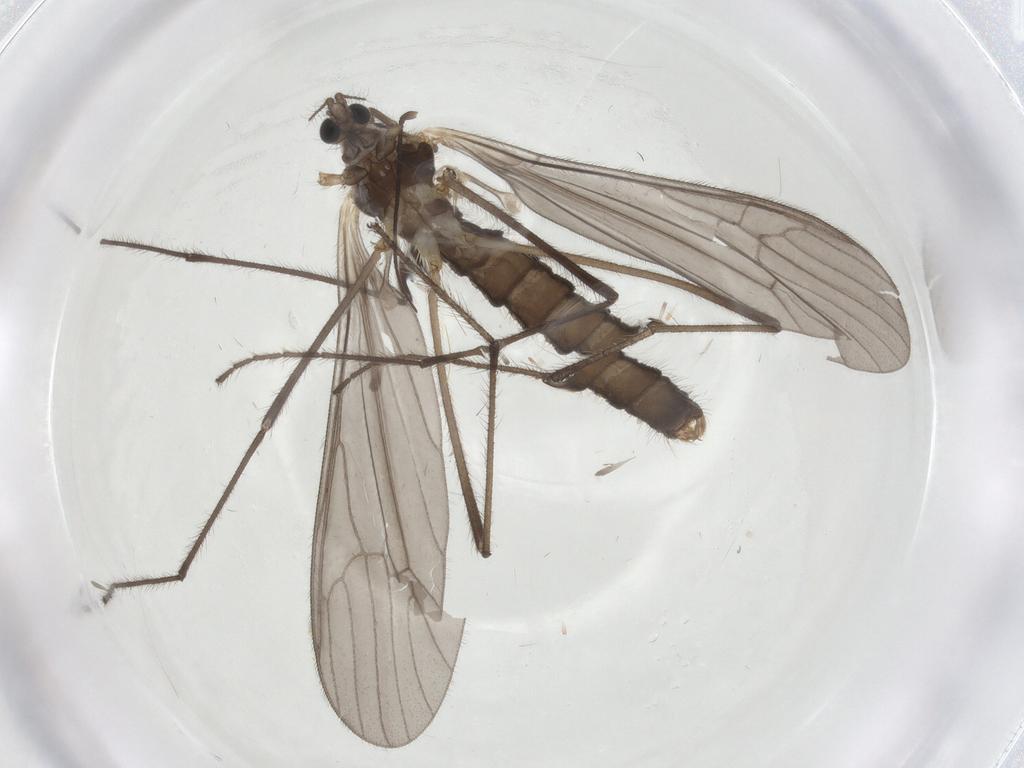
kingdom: Animalia
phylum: Arthropoda
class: Insecta
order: Diptera
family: Limoniidae
